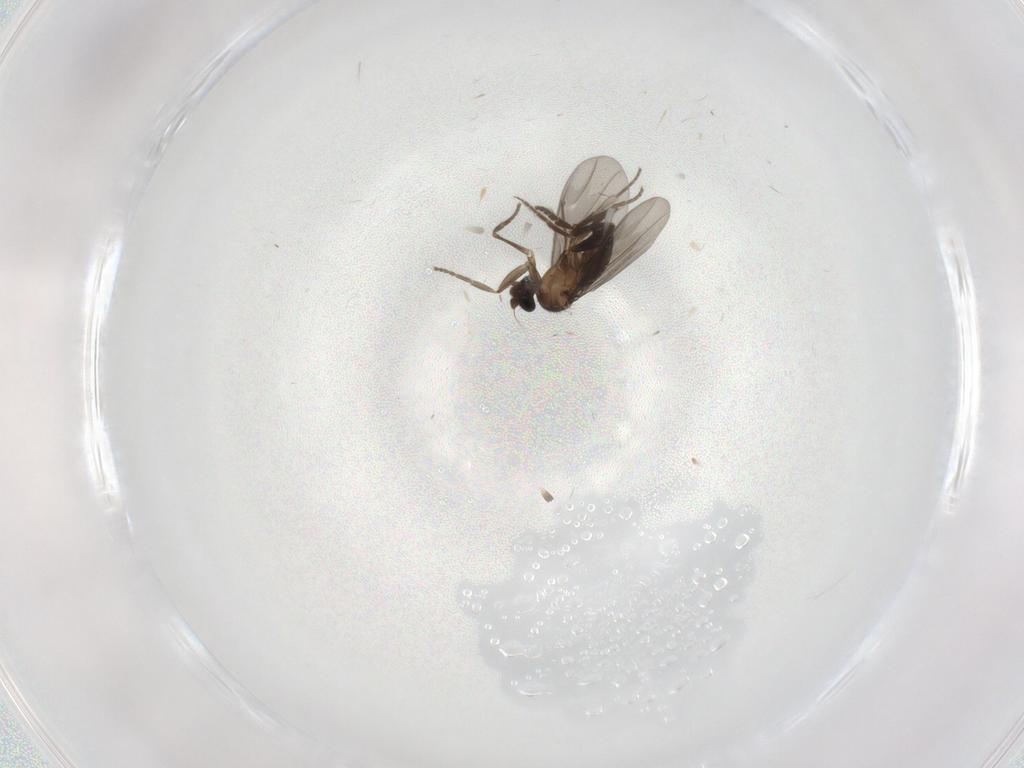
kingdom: Animalia
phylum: Arthropoda
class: Insecta
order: Diptera
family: Phoridae
